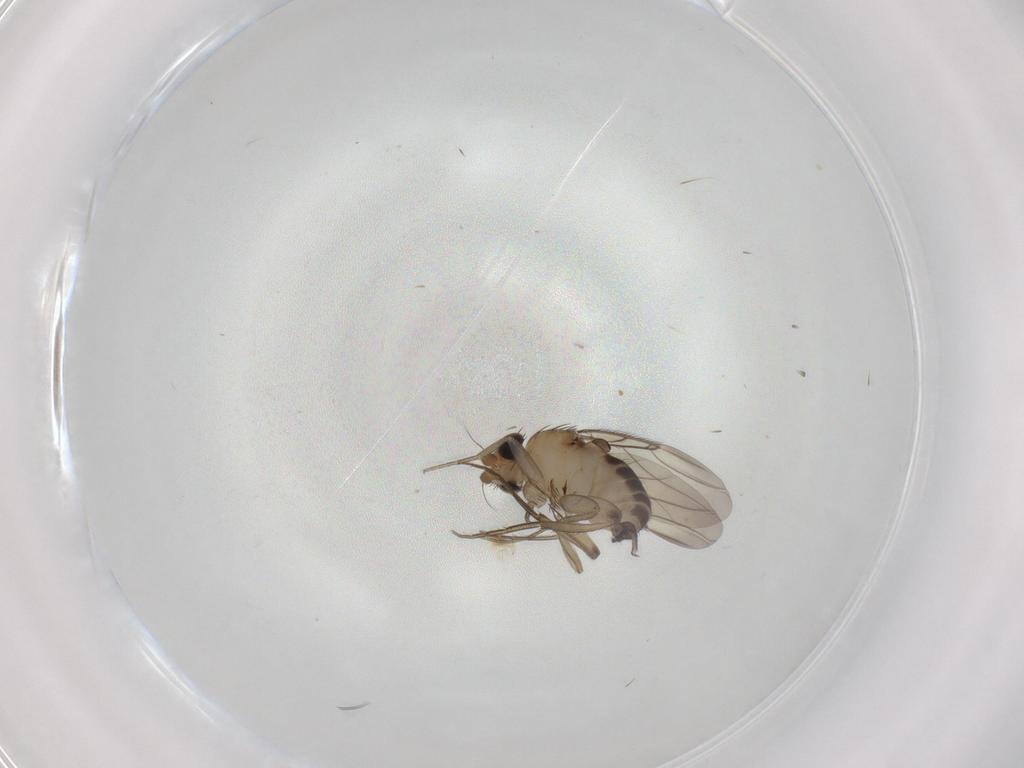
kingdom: Animalia
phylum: Arthropoda
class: Insecta
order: Diptera
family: Phoridae
